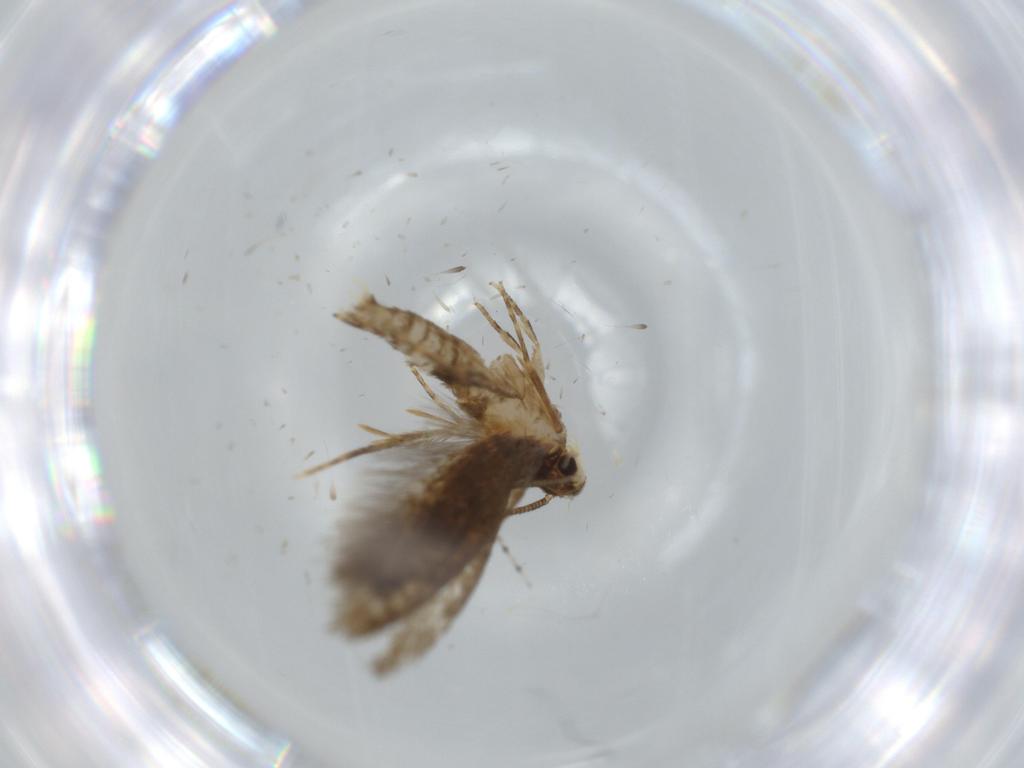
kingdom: Animalia
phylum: Arthropoda
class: Insecta
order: Lepidoptera
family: Tineidae
